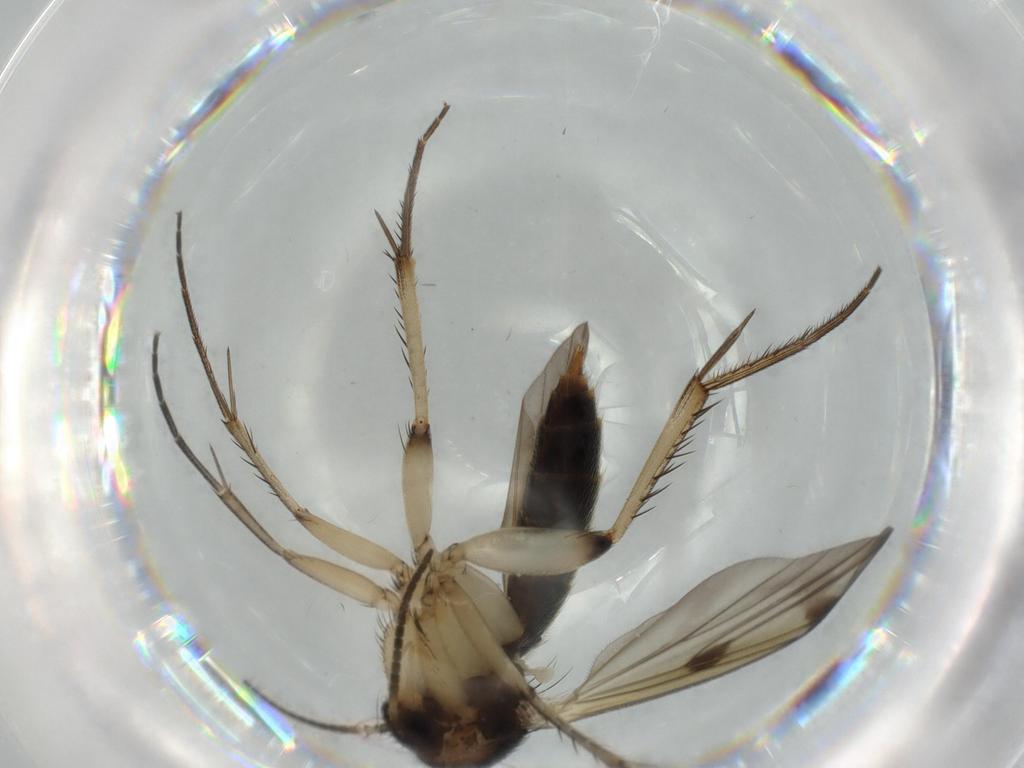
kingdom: Animalia
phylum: Arthropoda
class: Insecta
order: Diptera
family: Mycetophilidae
